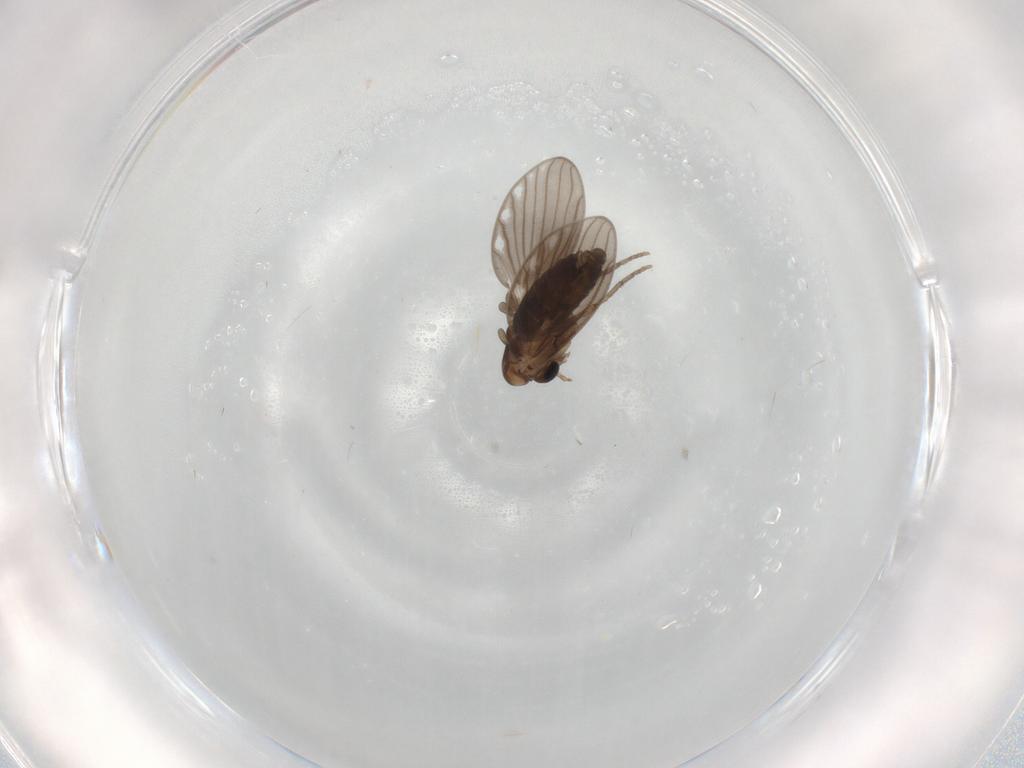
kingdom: Animalia
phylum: Arthropoda
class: Insecta
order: Diptera
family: Psychodidae
